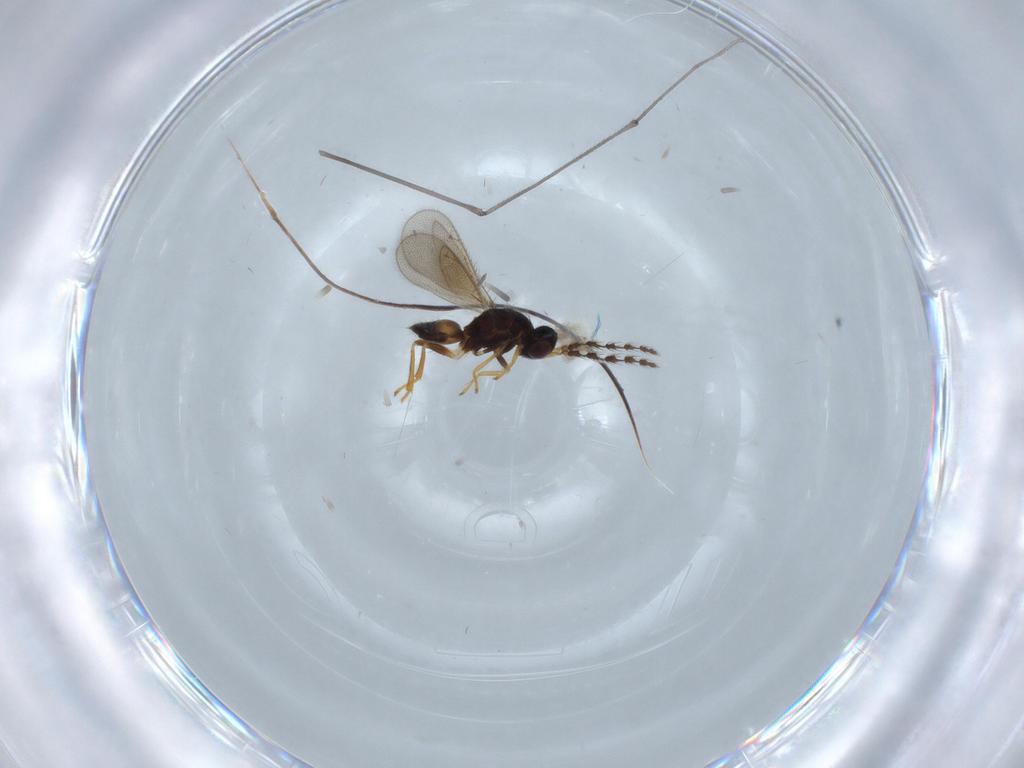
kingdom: Animalia
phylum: Arthropoda
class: Insecta
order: Hymenoptera
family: Eulophidae
